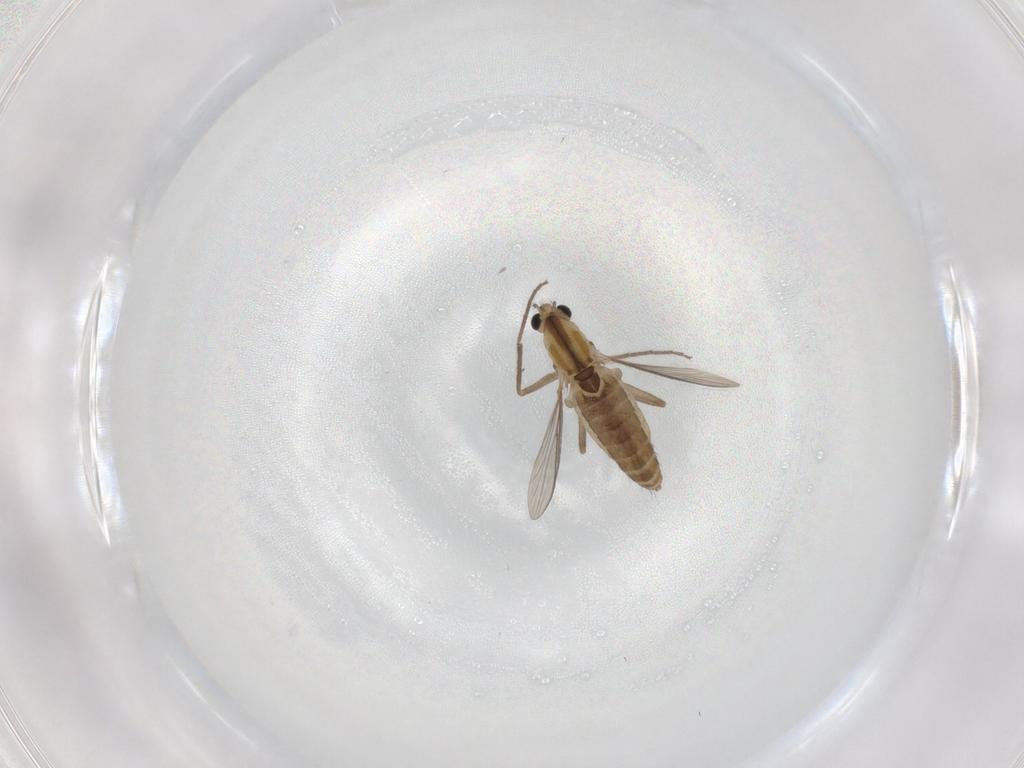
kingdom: Animalia
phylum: Arthropoda
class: Insecta
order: Diptera
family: Chironomidae
